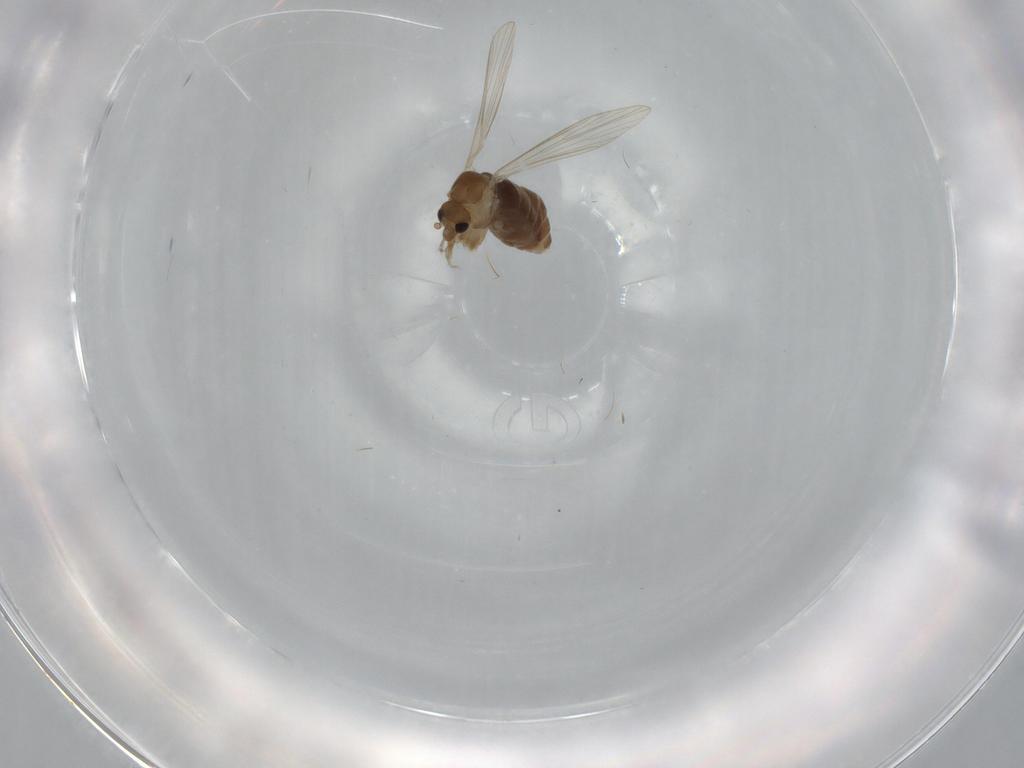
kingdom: Animalia
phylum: Arthropoda
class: Insecta
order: Diptera
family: Psychodidae
